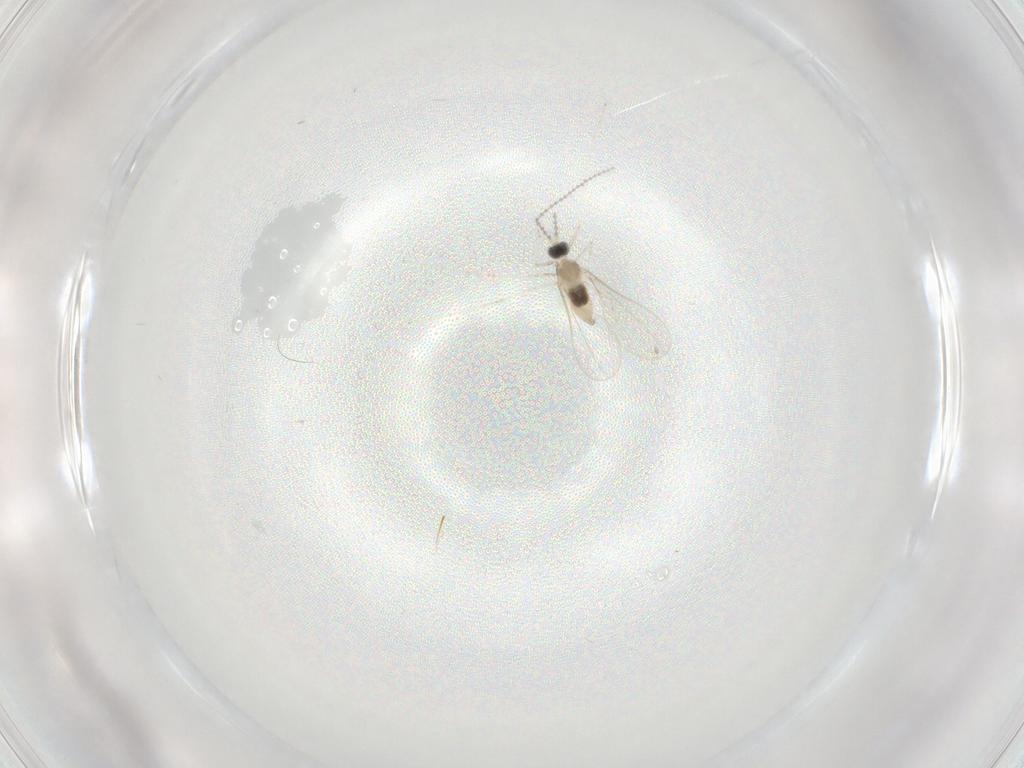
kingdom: Animalia
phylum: Arthropoda
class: Insecta
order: Diptera
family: Cecidomyiidae
